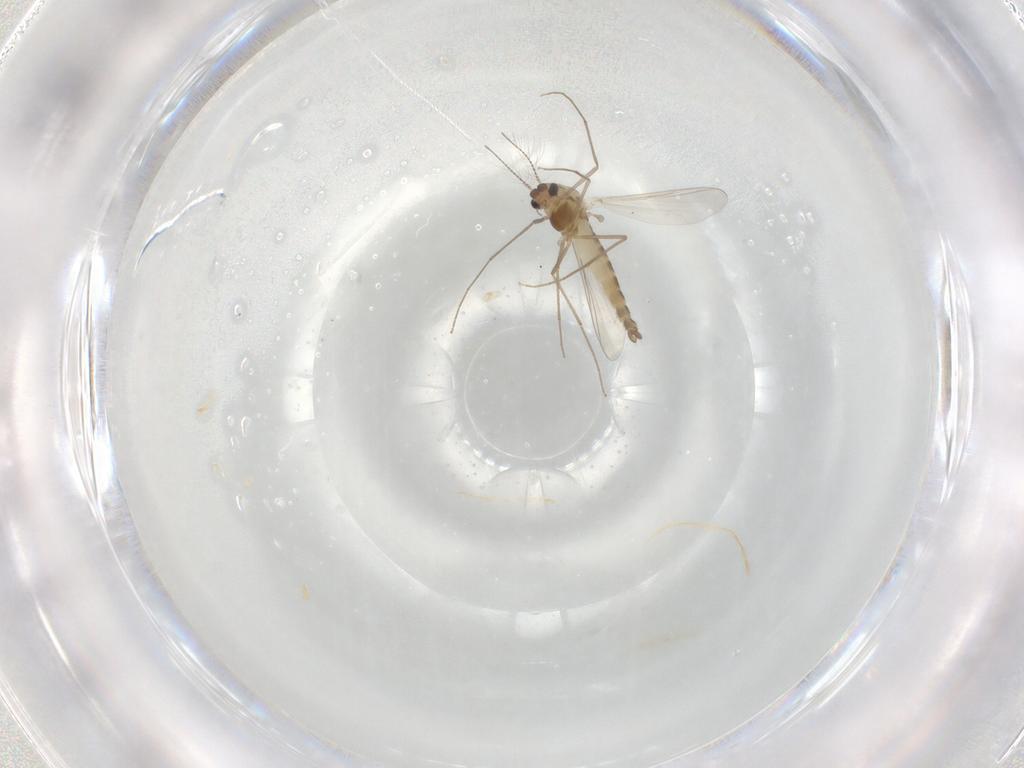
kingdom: Animalia
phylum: Arthropoda
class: Insecta
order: Diptera
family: Chironomidae
